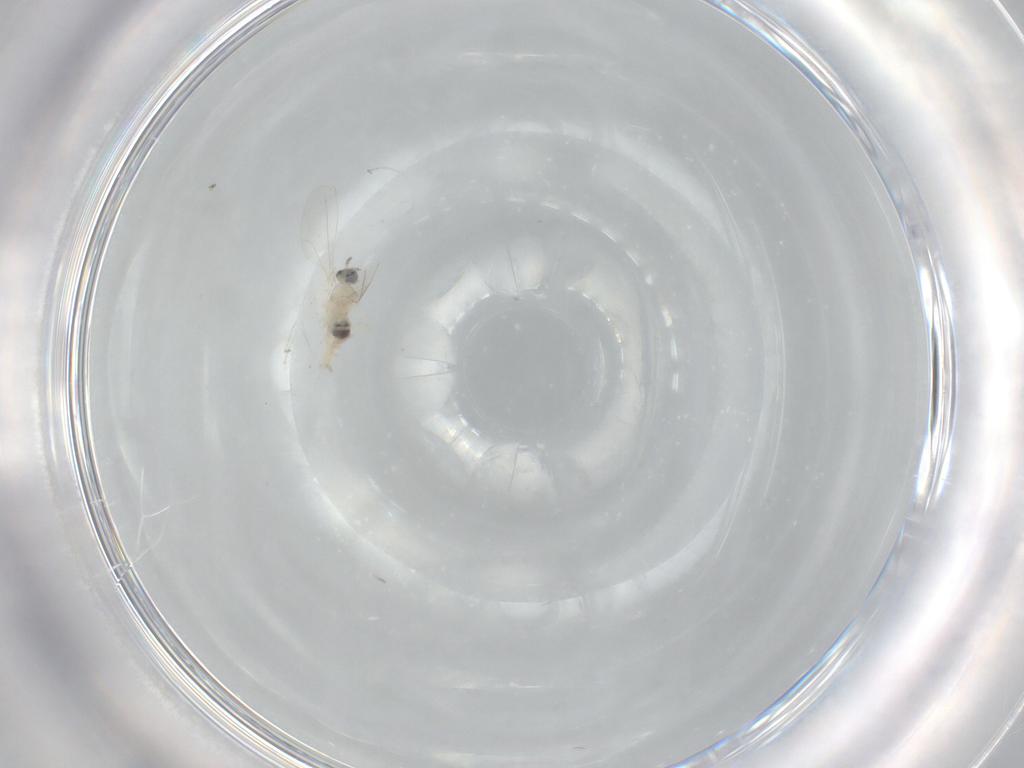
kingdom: Animalia
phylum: Arthropoda
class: Insecta
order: Diptera
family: Cecidomyiidae
